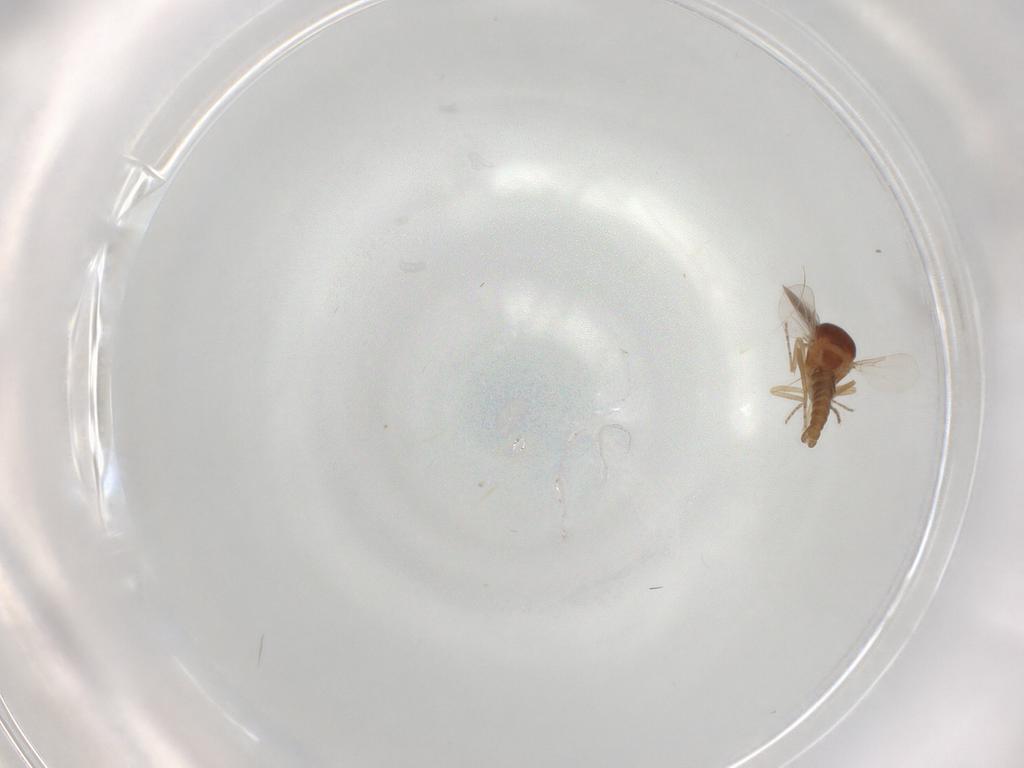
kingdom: Animalia
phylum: Arthropoda
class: Insecta
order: Diptera
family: Ceratopogonidae
